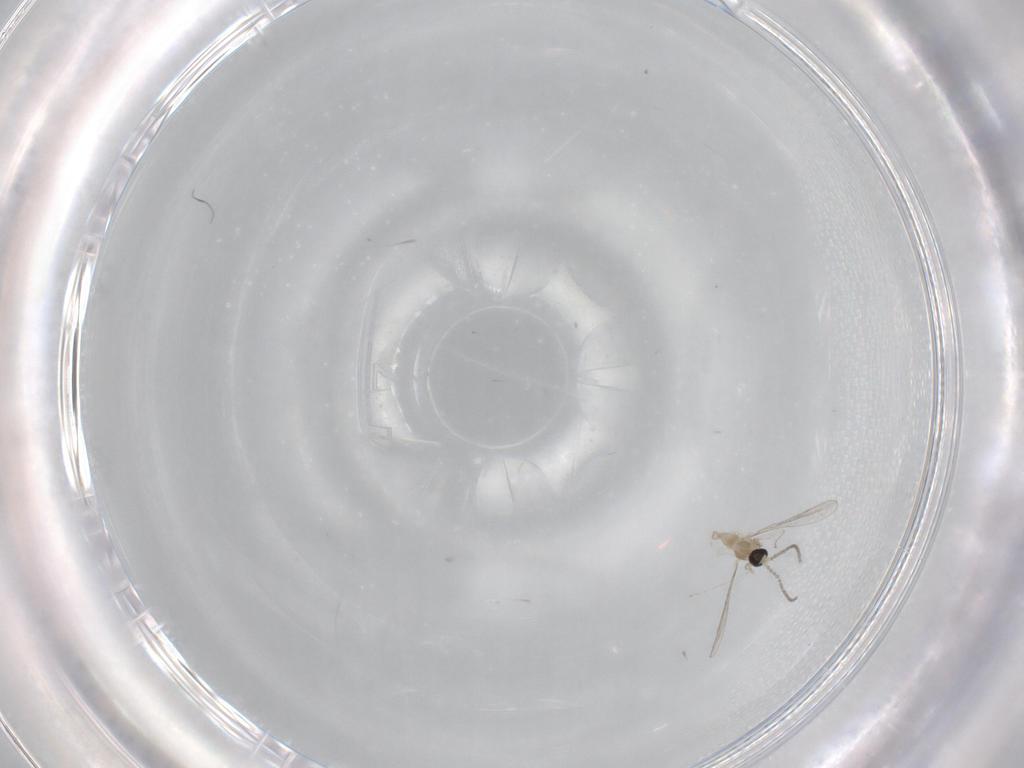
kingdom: Animalia
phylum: Arthropoda
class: Insecta
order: Diptera
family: Cecidomyiidae
